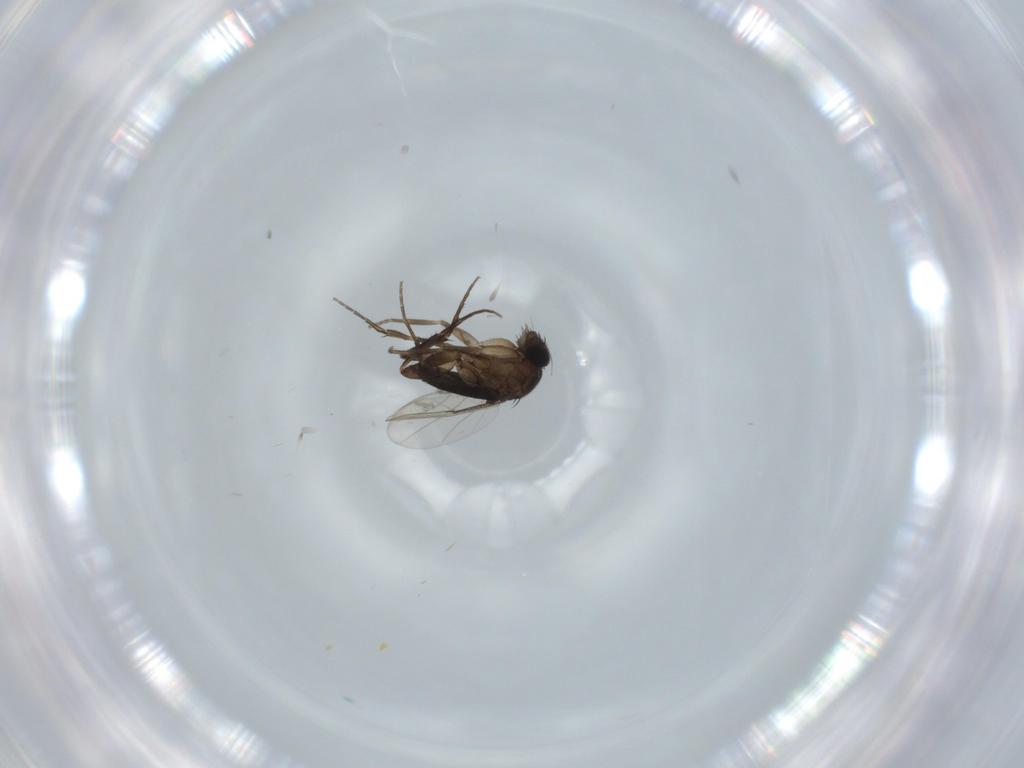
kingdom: Animalia
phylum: Arthropoda
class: Insecta
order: Diptera
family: Phoridae
